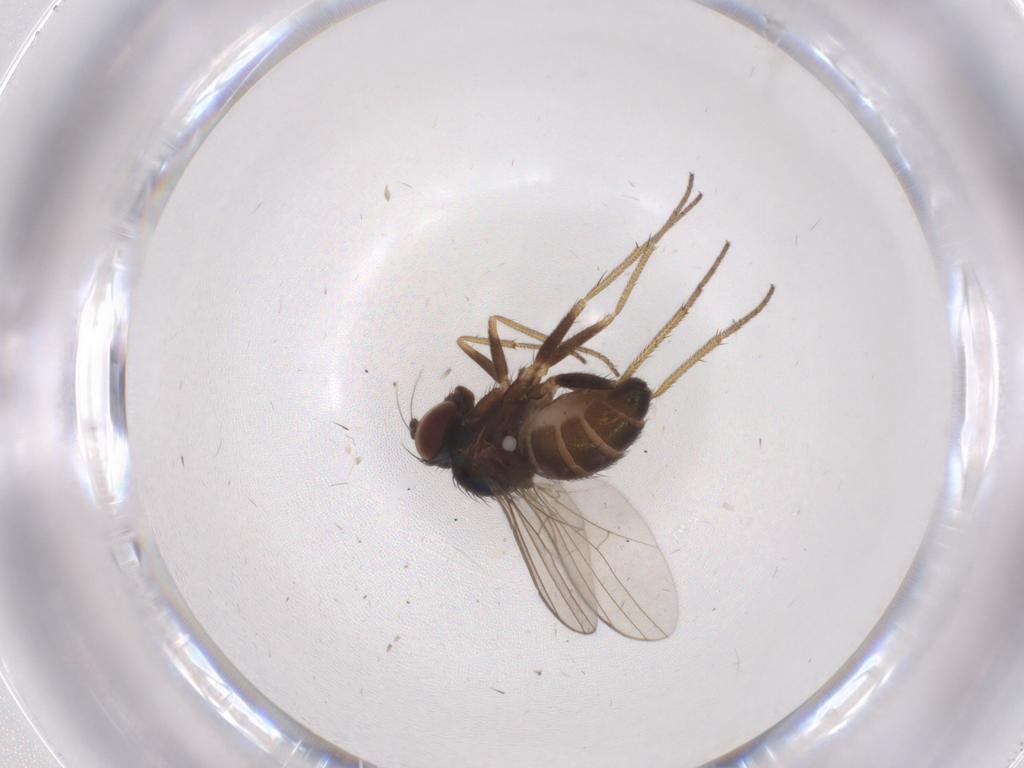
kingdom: Animalia
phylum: Arthropoda
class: Insecta
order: Diptera
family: Cecidomyiidae
